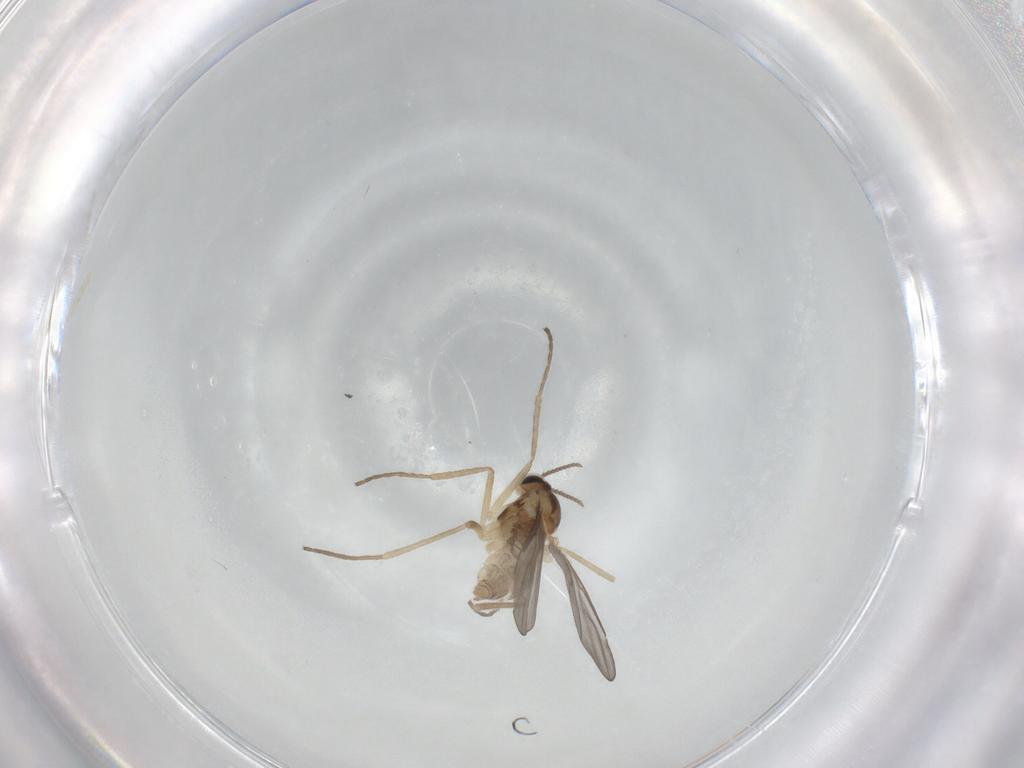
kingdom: Animalia
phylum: Arthropoda
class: Insecta
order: Diptera
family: Cecidomyiidae
